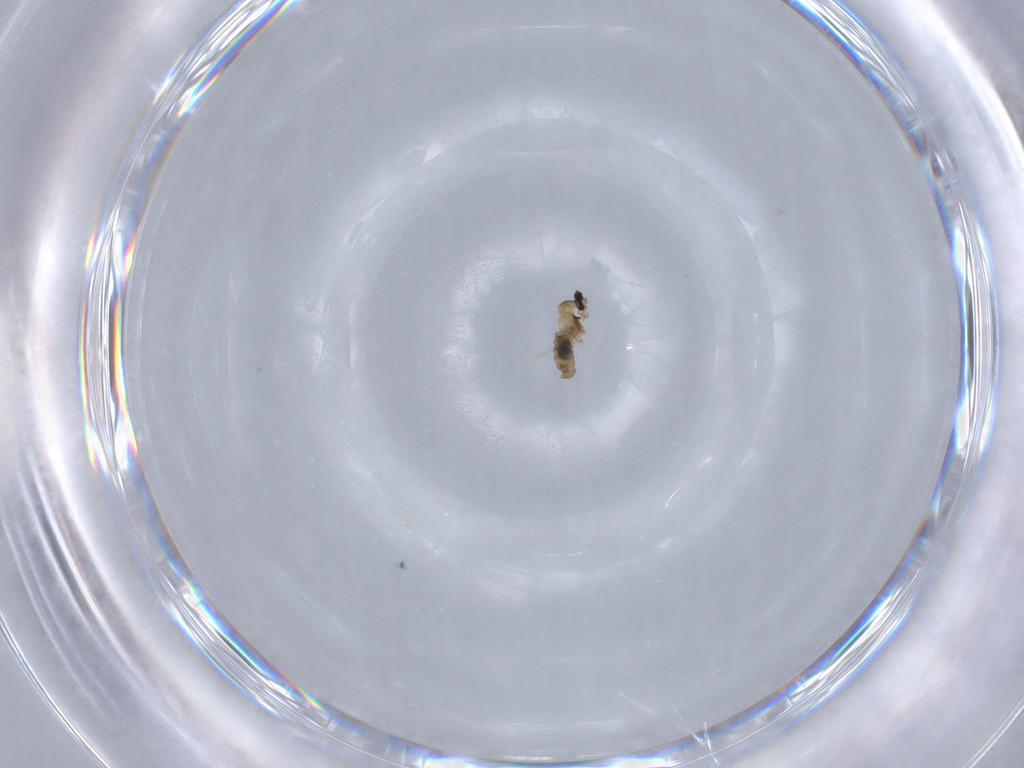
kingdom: Animalia
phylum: Arthropoda
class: Insecta
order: Diptera
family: Cecidomyiidae
